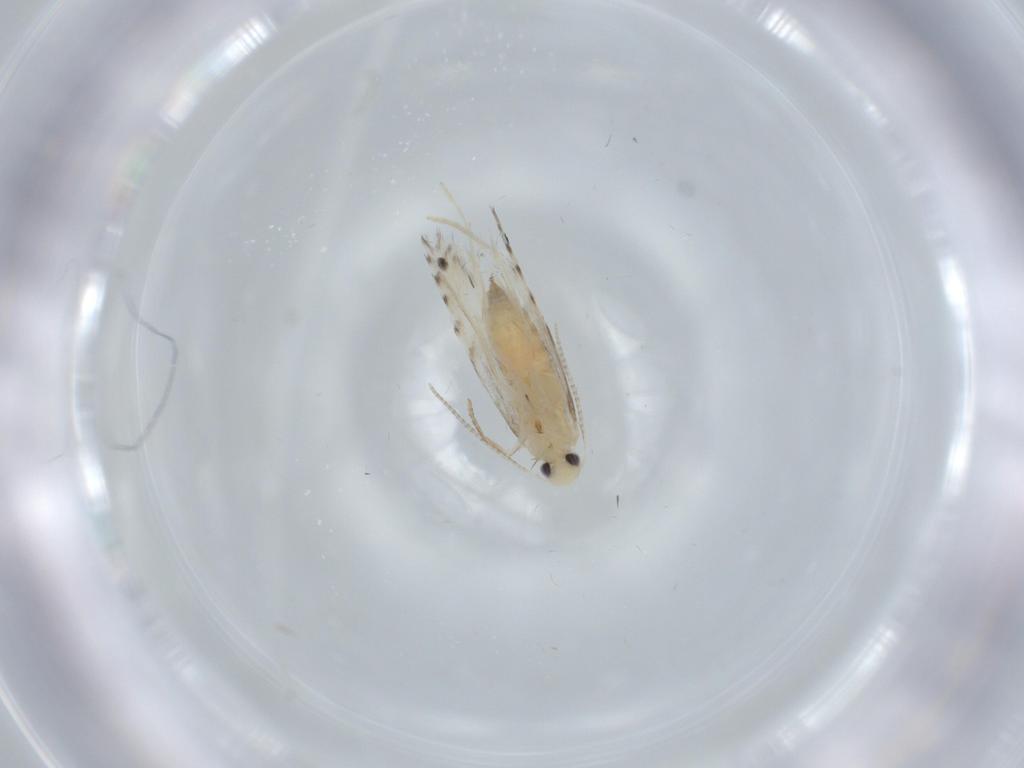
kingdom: Animalia
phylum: Arthropoda
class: Insecta
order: Lepidoptera
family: Gracillariidae
